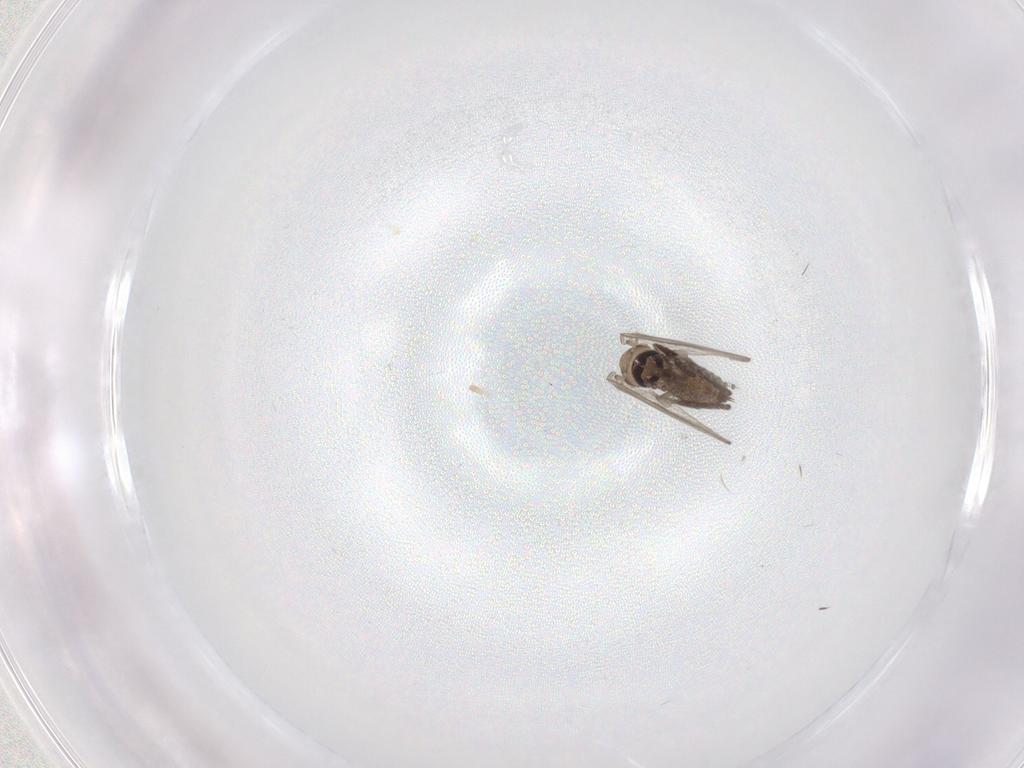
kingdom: Animalia
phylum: Arthropoda
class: Insecta
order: Diptera
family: Psychodidae
